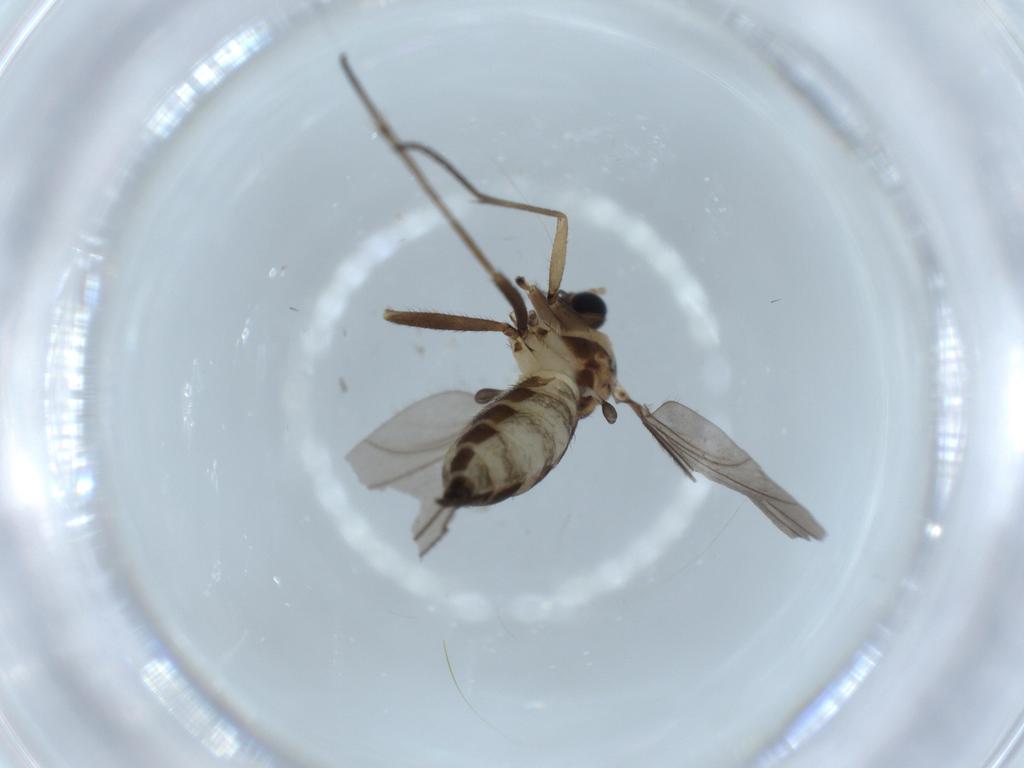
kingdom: Animalia
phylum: Arthropoda
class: Insecta
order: Diptera
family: Sciaridae
